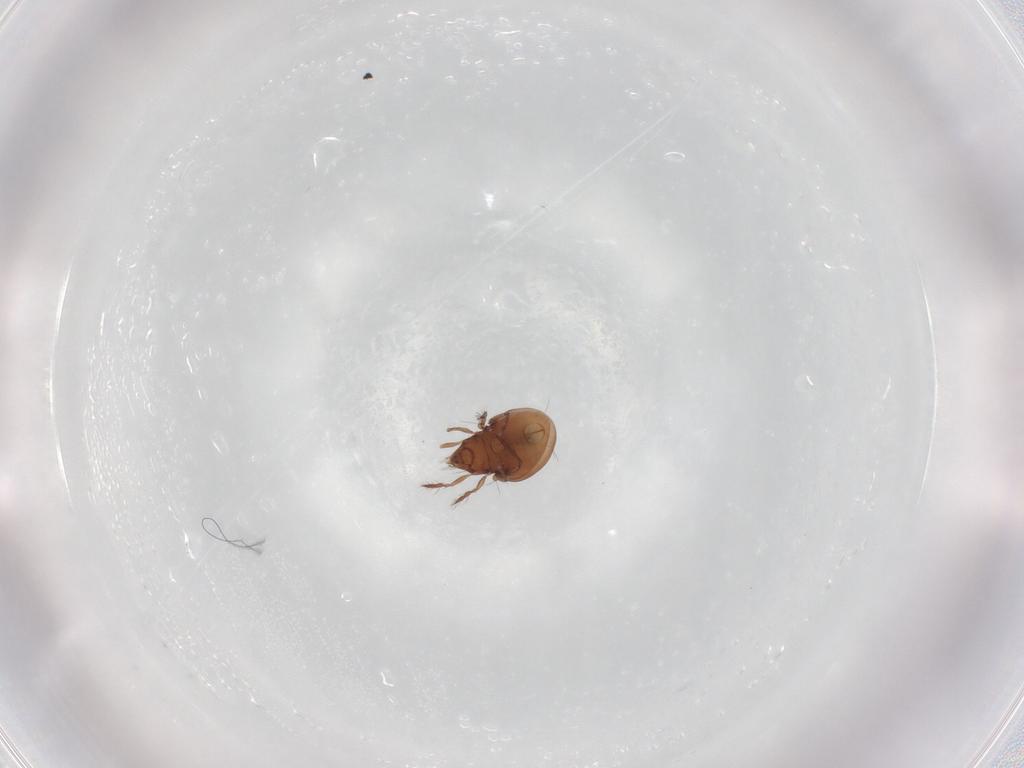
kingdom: Animalia
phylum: Arthropoda
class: Arachnida
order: Sarcoptiformes
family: Ceratoppiidae
